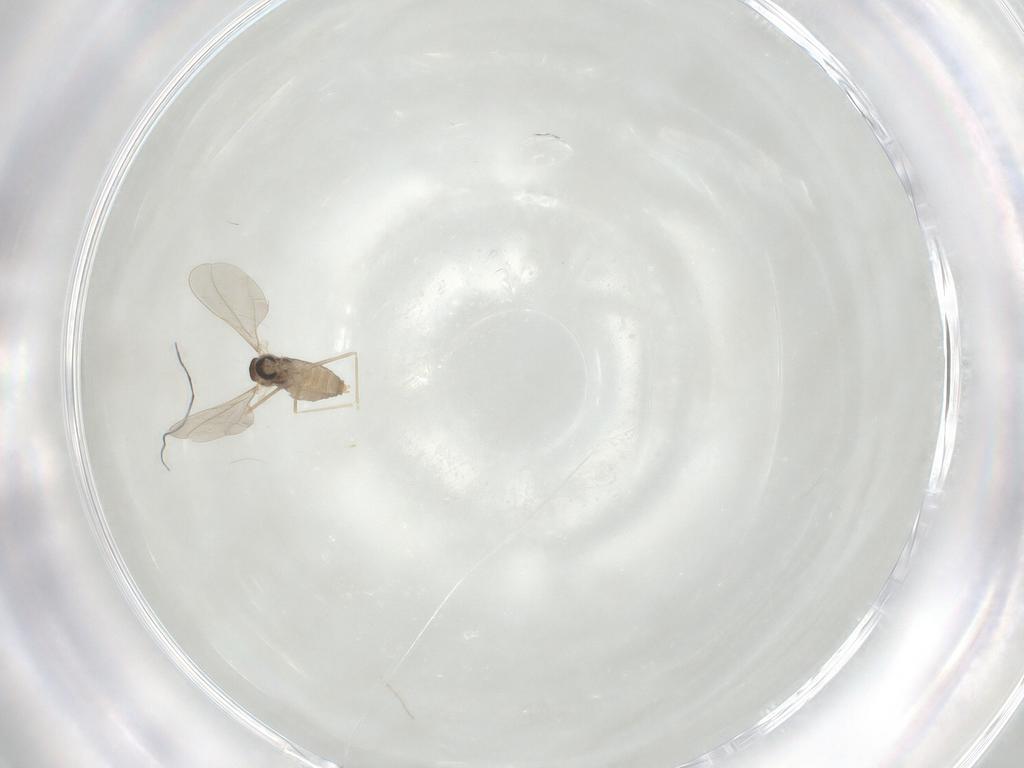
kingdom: Animalia
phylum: Arthropoda
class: Insecta
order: Diptera
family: Cecidomyiidae
